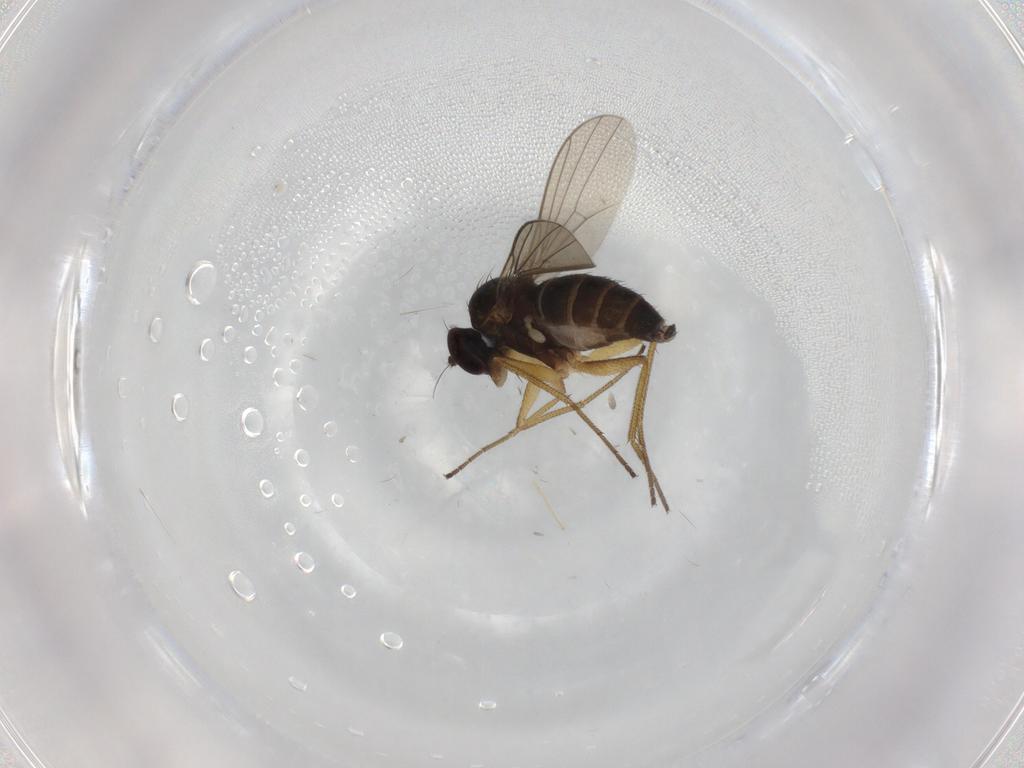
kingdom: Animalia
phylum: Arthropoda
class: Insecta
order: Diptera
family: Dolichopodidae
